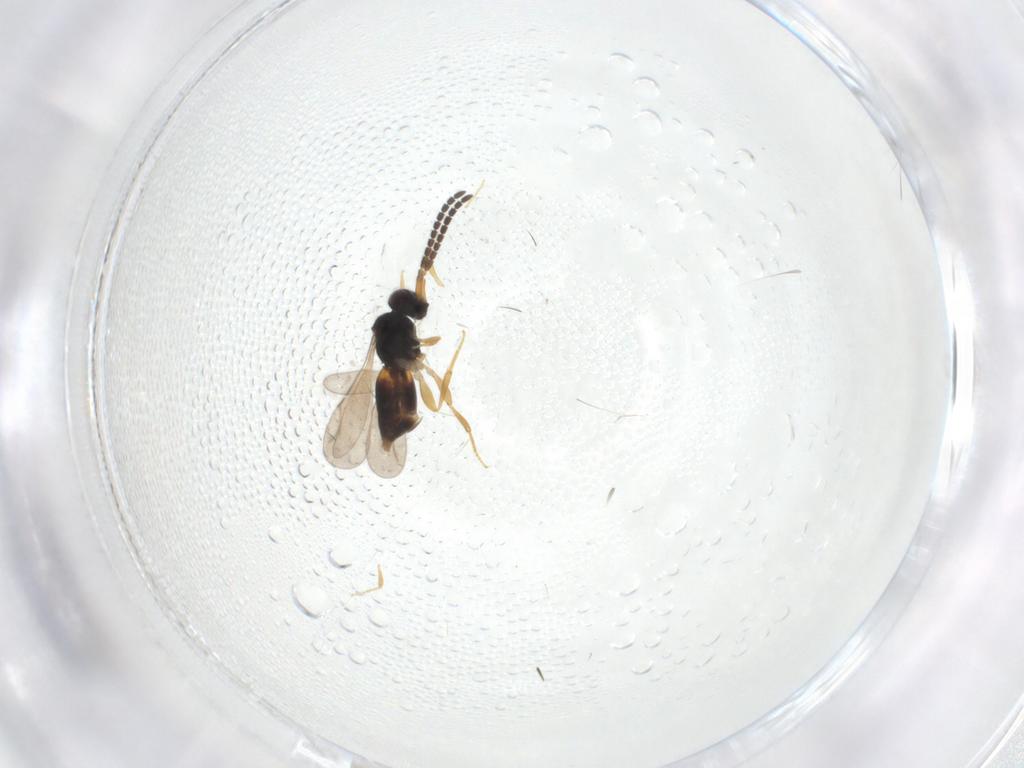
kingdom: Animalia
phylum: Arthropoda
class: Insecta
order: Hymenoptera
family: Ceraphronidae
